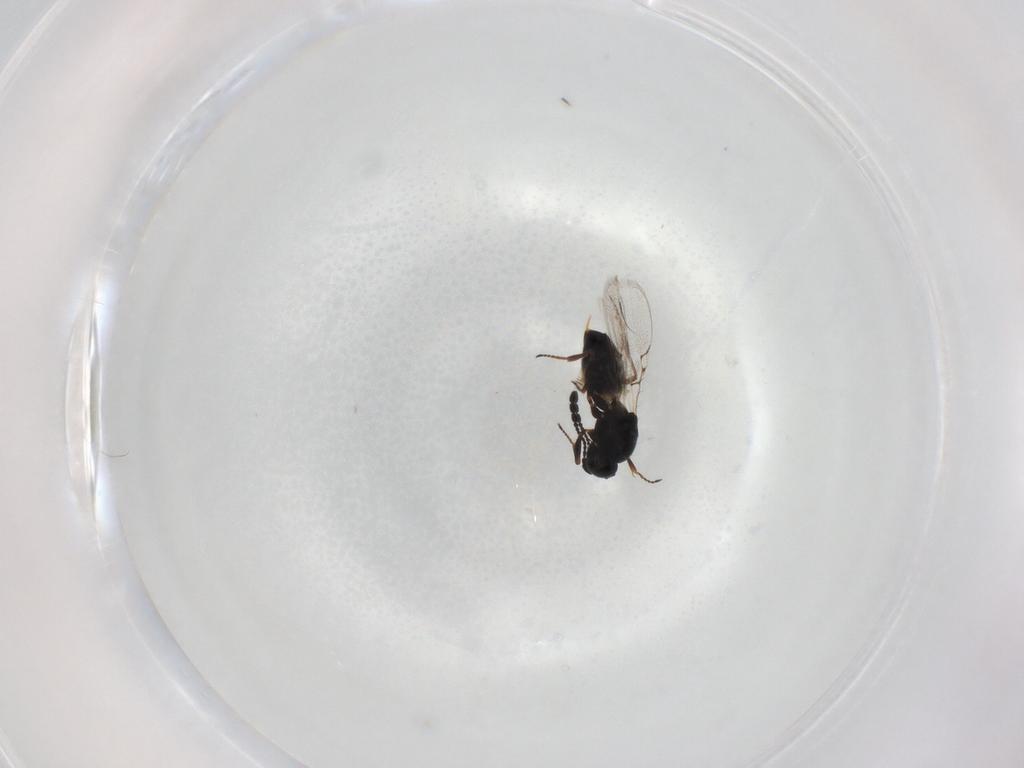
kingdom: Animalia
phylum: Arthropoda
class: Insecta
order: Hymenoptera
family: Figitidae
